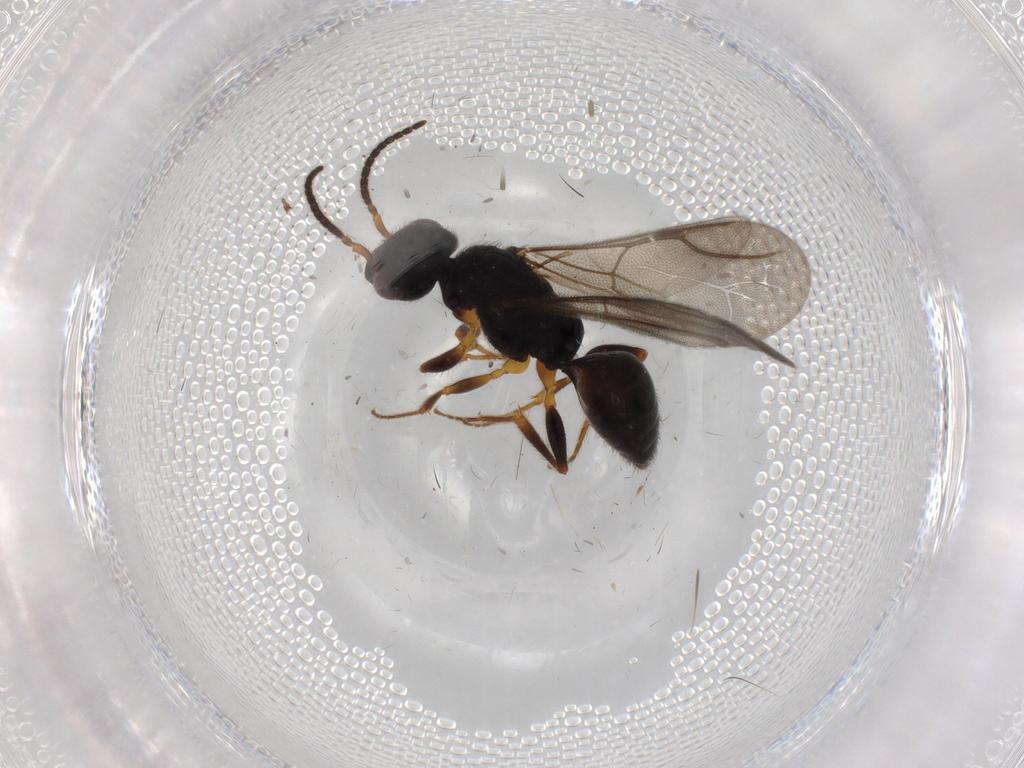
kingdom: Animalia
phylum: Arthropoda
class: Insecta
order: Hymenoptera
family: Bethylidae
